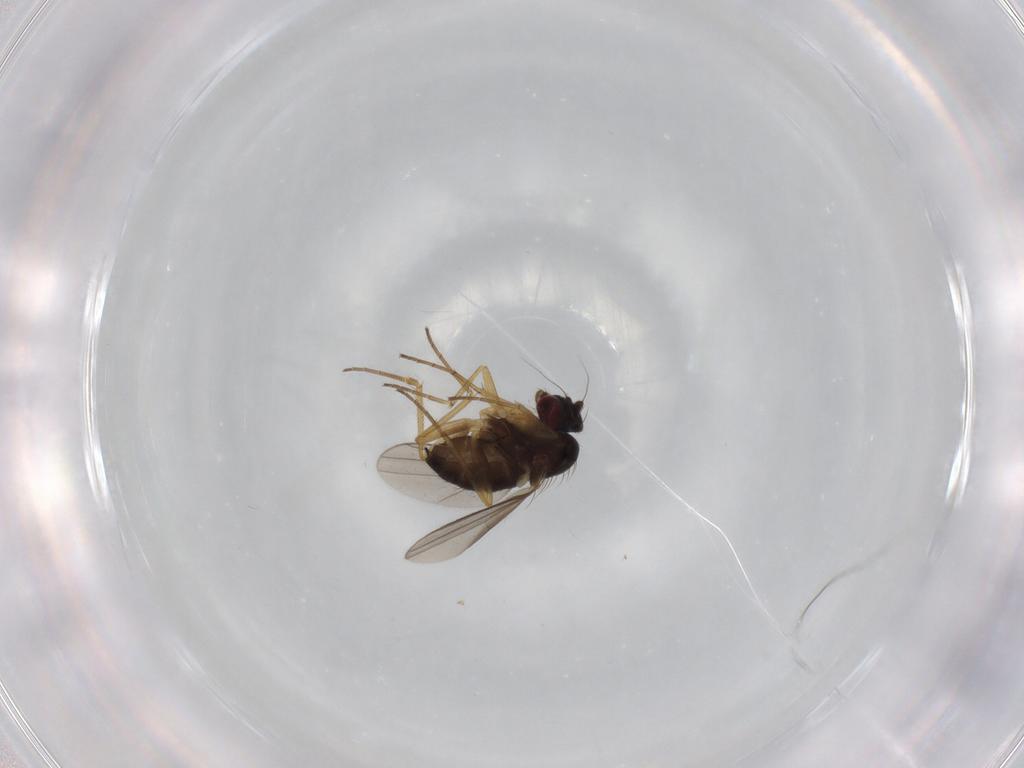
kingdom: Animalia
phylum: Arthropoda
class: Insecta
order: Diptera
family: Dolichopodidae
